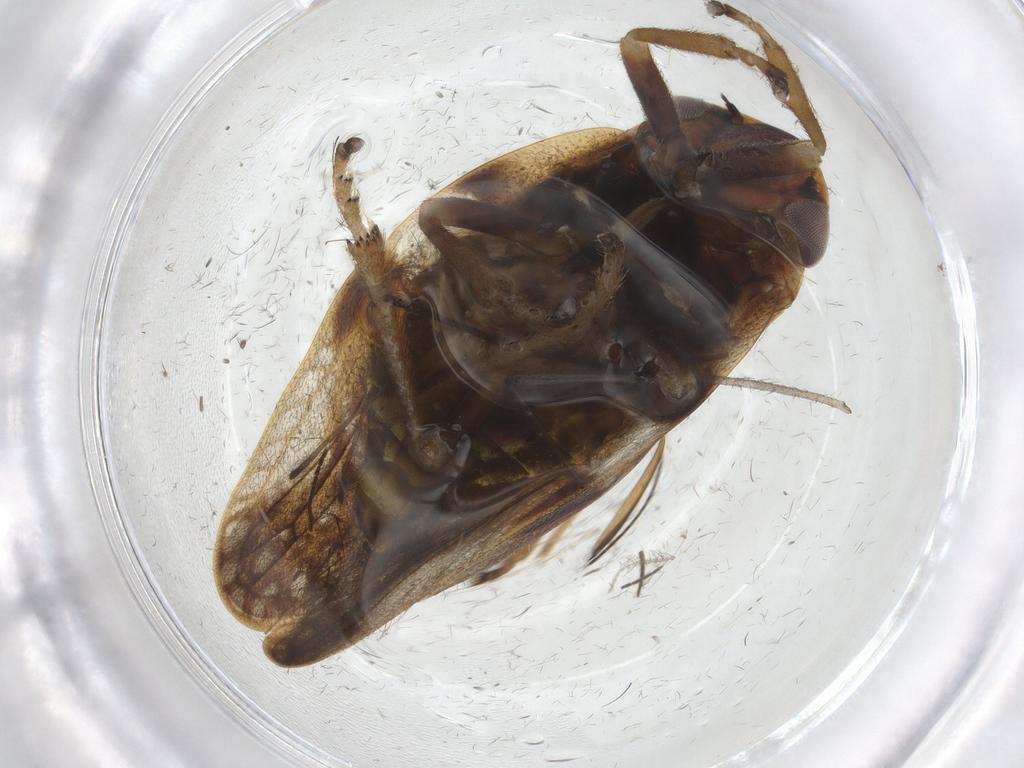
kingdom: Animalia
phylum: Arthropoda
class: Insecta
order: Hemiptera
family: Aphrophoridae
